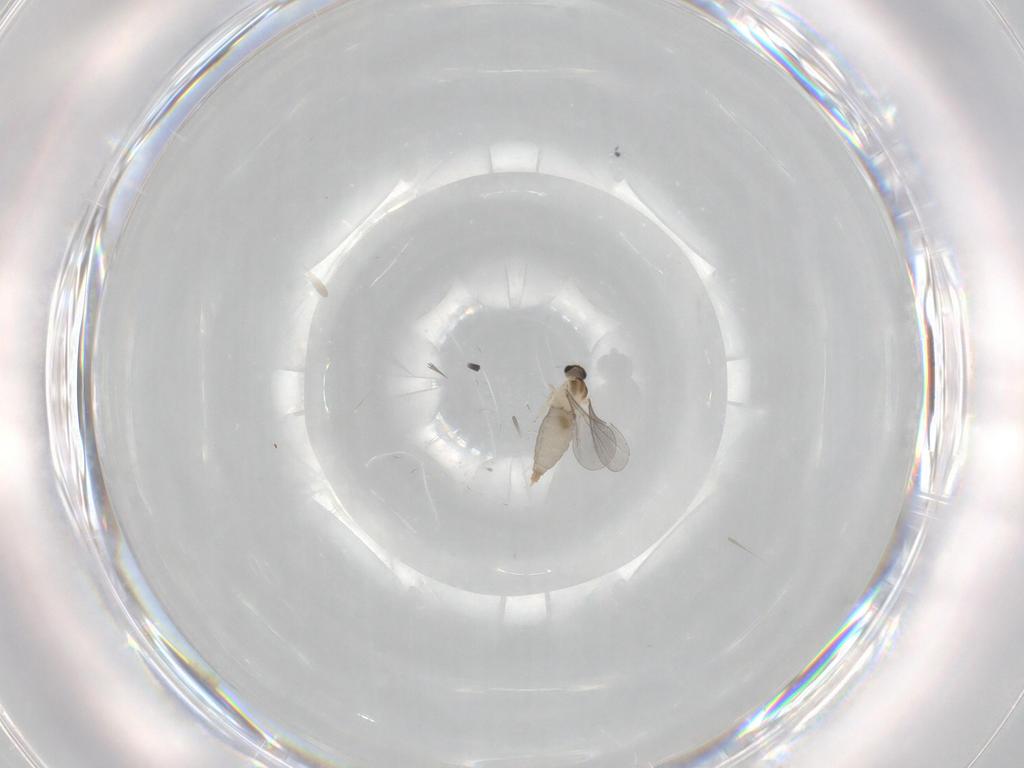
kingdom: Animalia
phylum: Arthropoda
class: Insecta
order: Diptera
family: Cecidomyiidae
